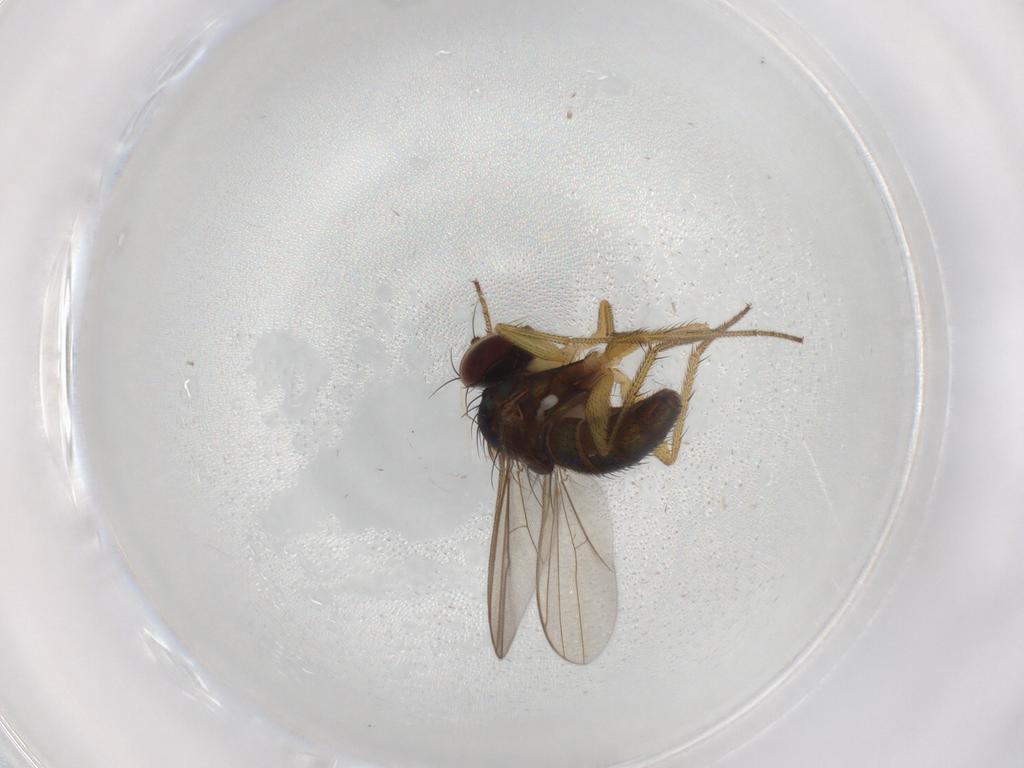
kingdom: Animalia
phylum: Arthropoda
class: Insecta
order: Diptera
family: Dolichopodidae
